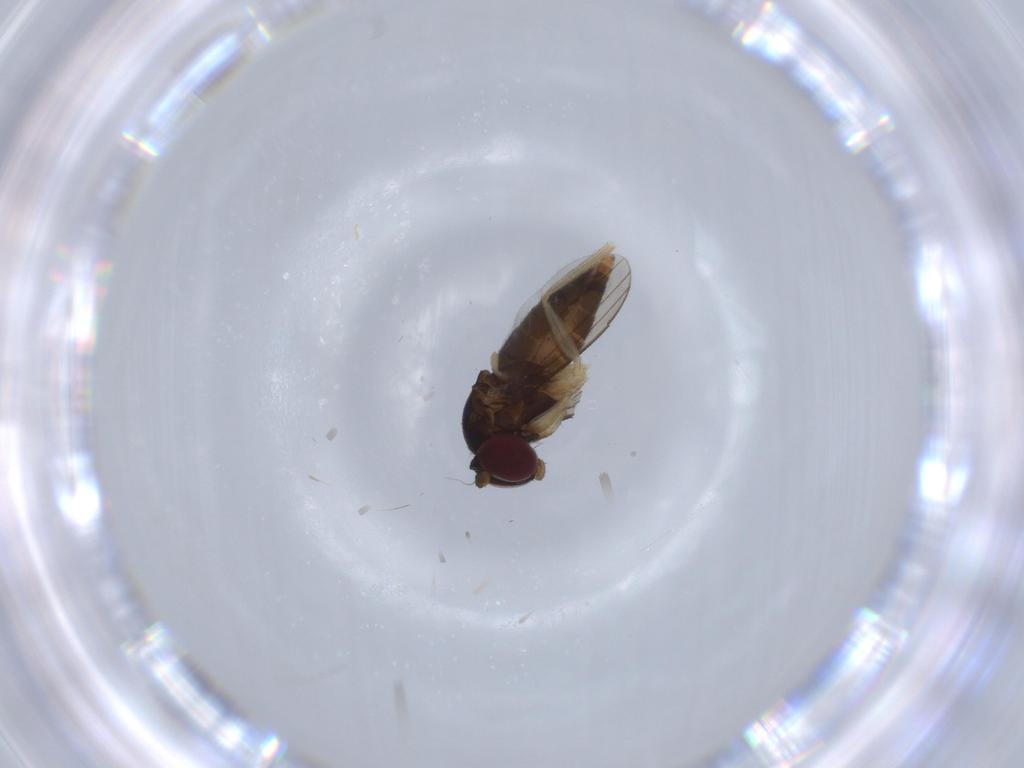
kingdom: Animalia
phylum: Arthropoda
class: Insecta
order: Diptera
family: Dolichopodidae
